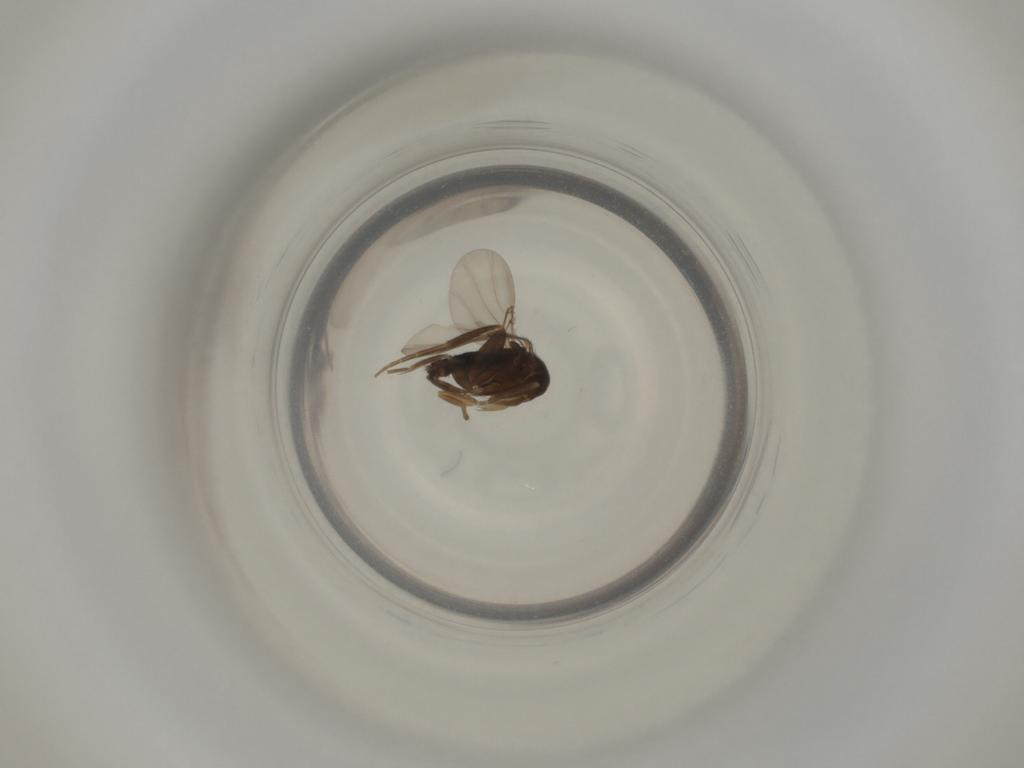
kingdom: Animalia
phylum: Arthropoda
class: Insecta
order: Diptera
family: Phoridae
